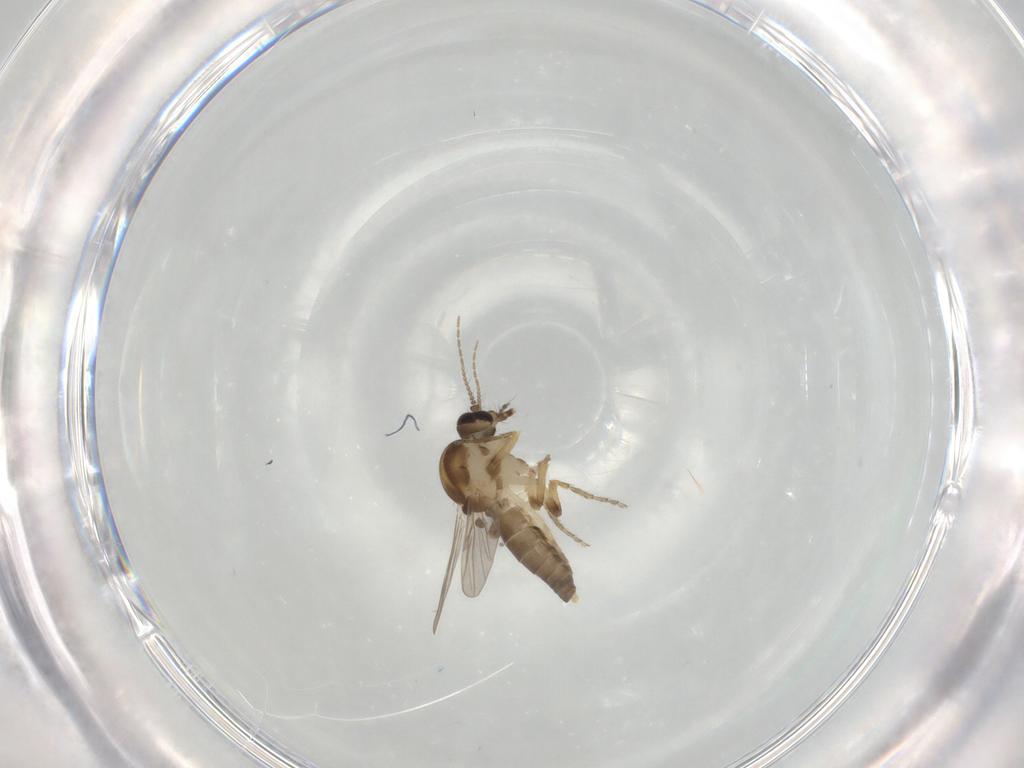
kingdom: Animalia
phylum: Arthropoda
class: Insecta
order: Diptera
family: Ceratopogonidae
